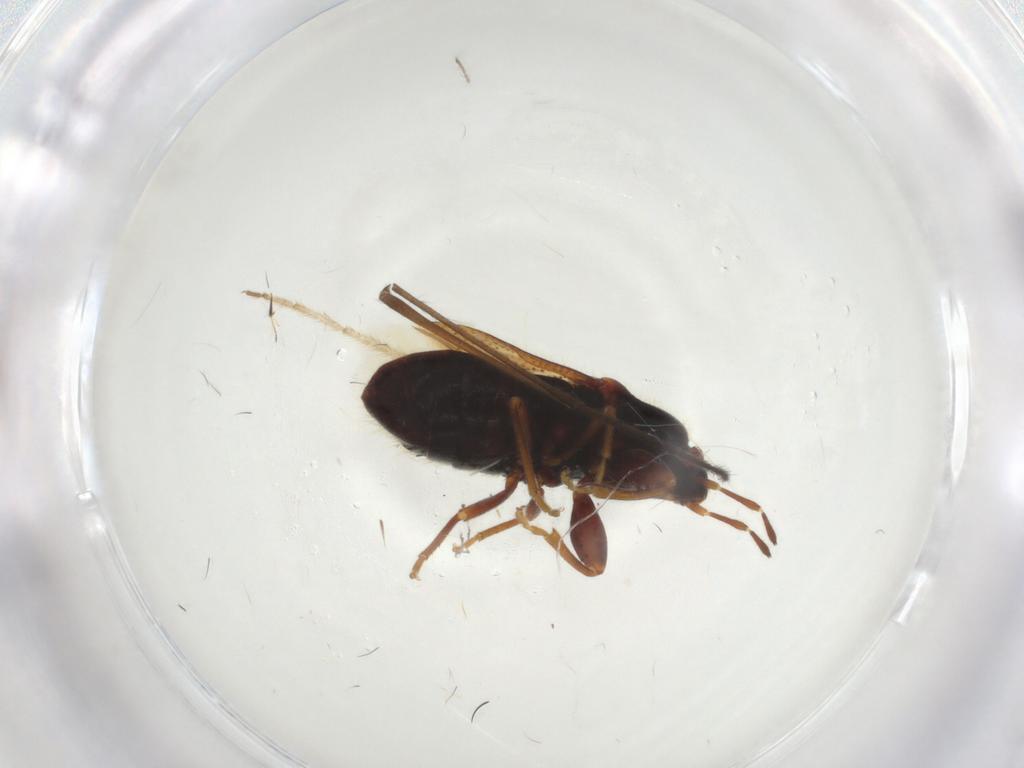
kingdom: Animalia
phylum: Arthropoda
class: Insecta
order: Hemiptera
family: Rhyparochromidae
